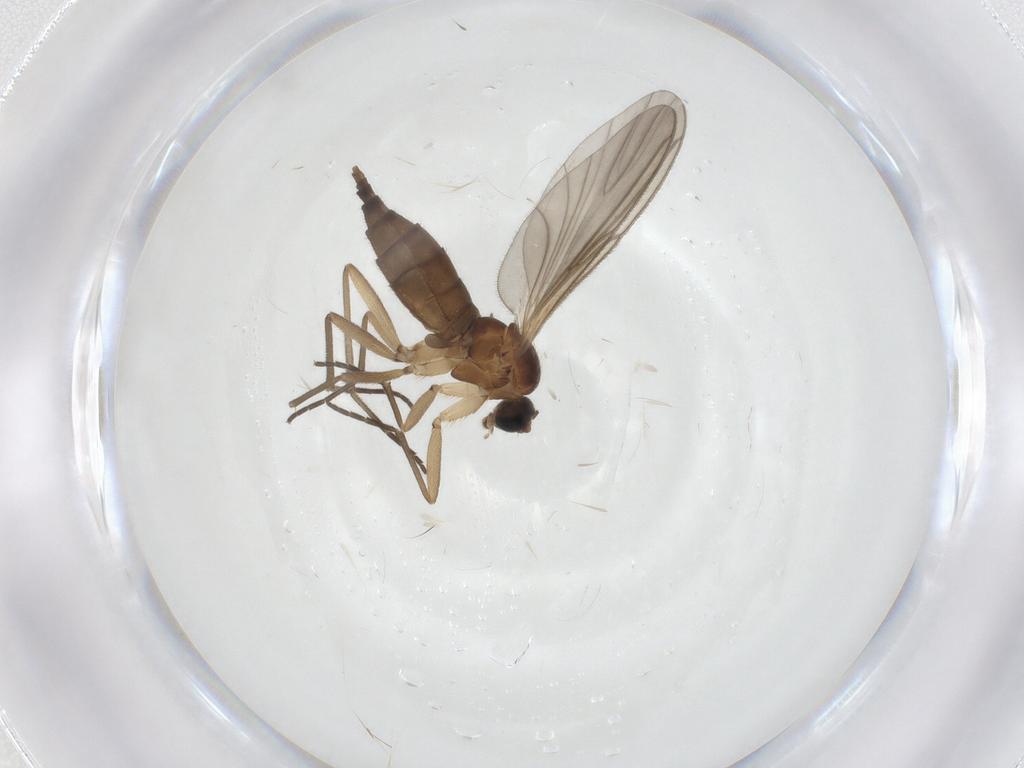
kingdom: Animalia
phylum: Arthropoda
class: Insecta
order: Diptera
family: Sciaridae
